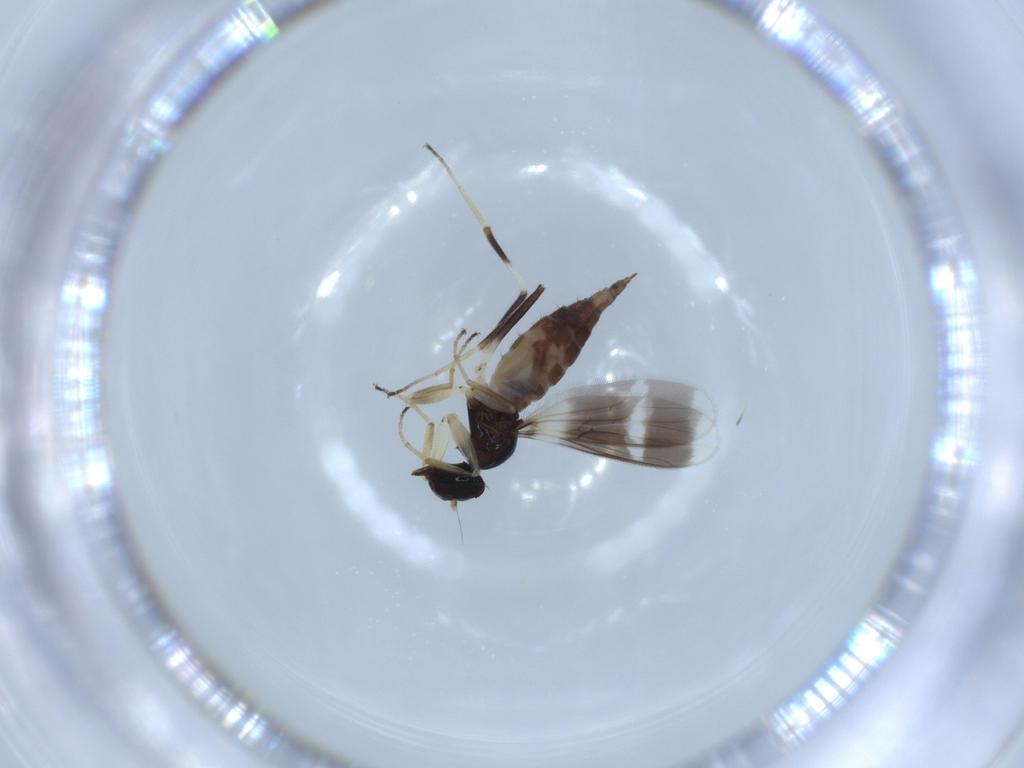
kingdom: Animalia
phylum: Arthropoda
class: Insecta
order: Diptera
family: Hybotidae
